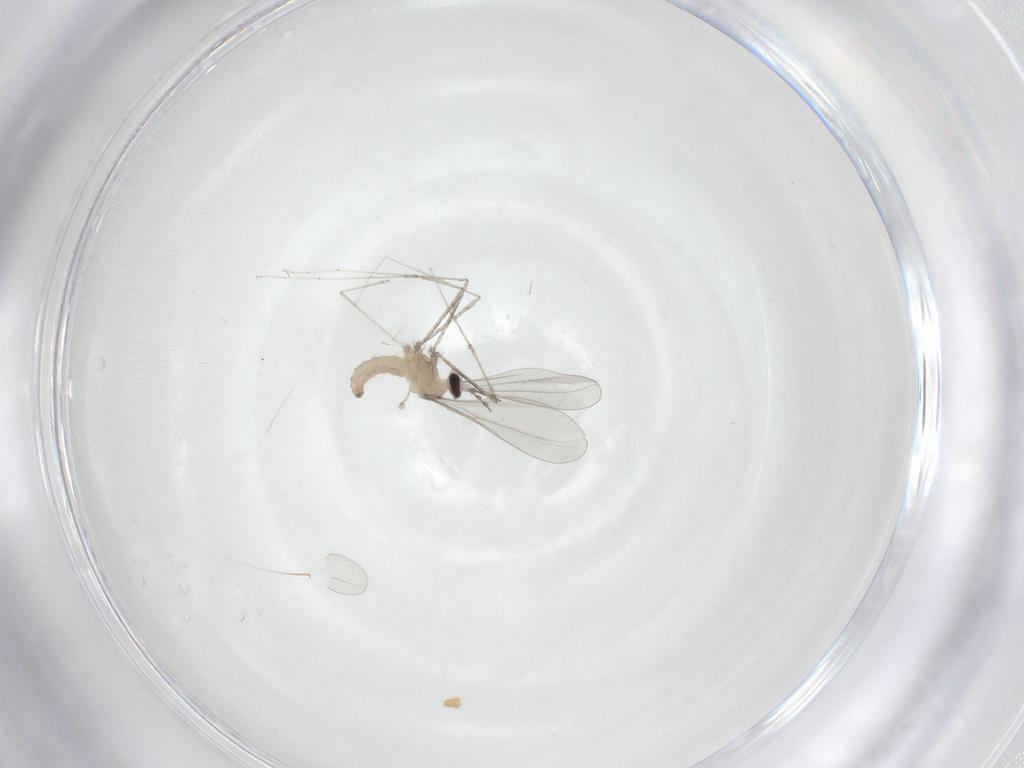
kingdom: Animalia
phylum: Arthropoda
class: Insecta
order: Diptera
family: Cecidomyiidae
